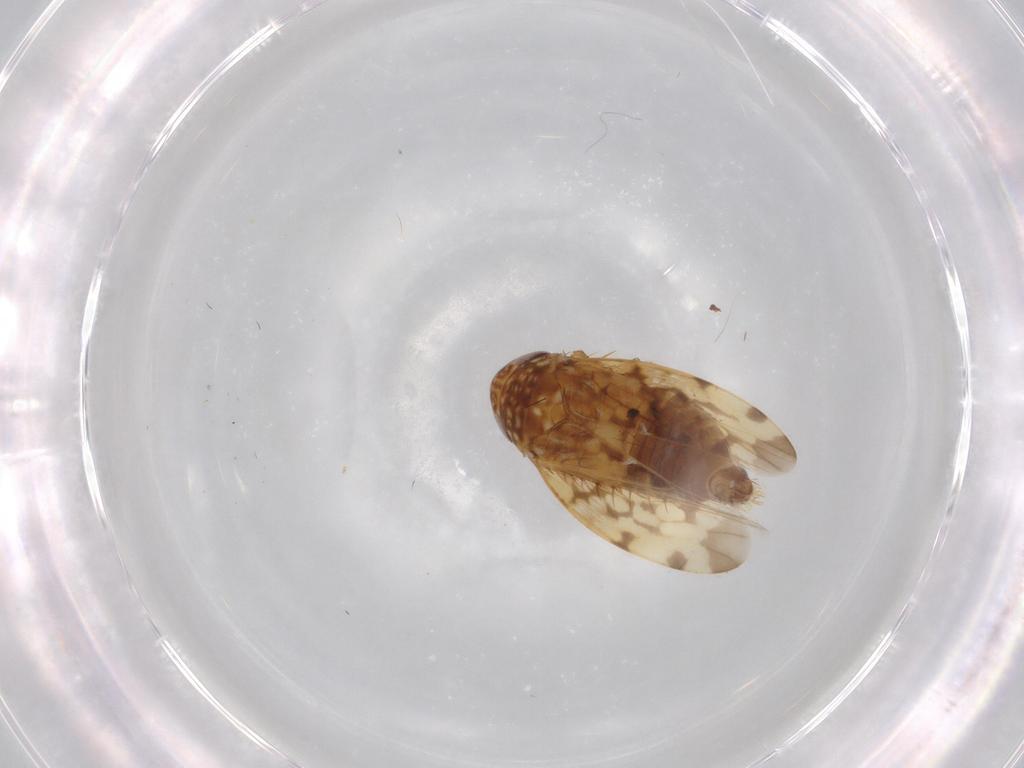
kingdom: Animalia
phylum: Arthropoda
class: Insecta
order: Hemiptera
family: Cicadellidae
